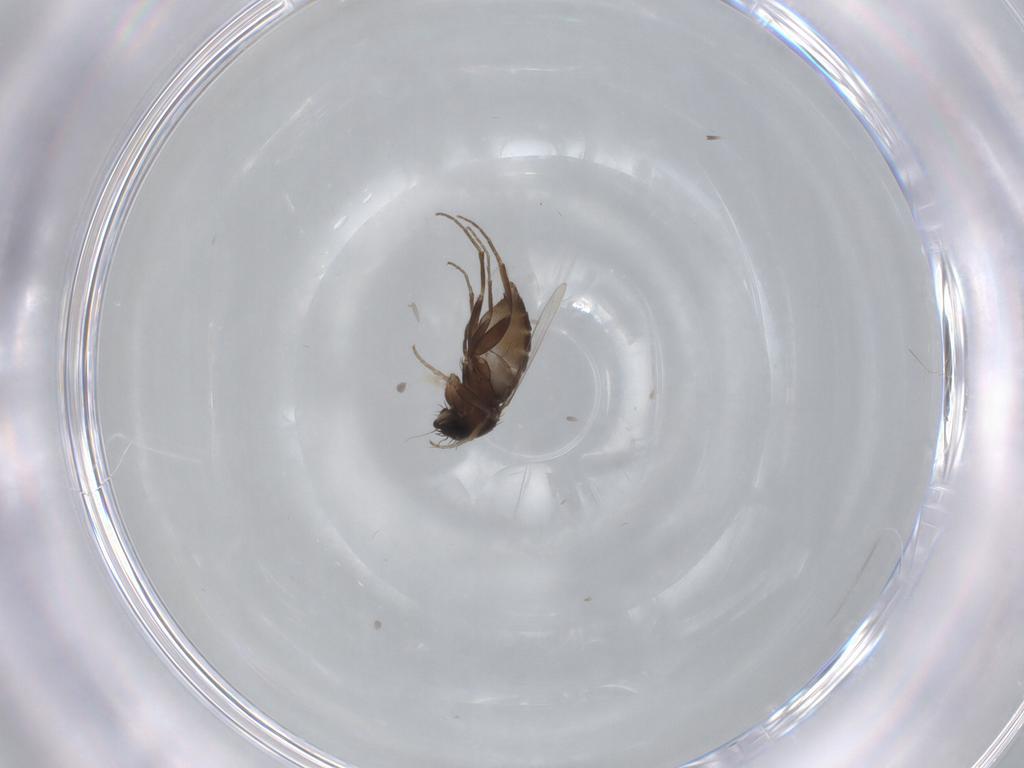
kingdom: Animalia
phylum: Arthropoda
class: Insecta
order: Diptera
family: Phoridae
